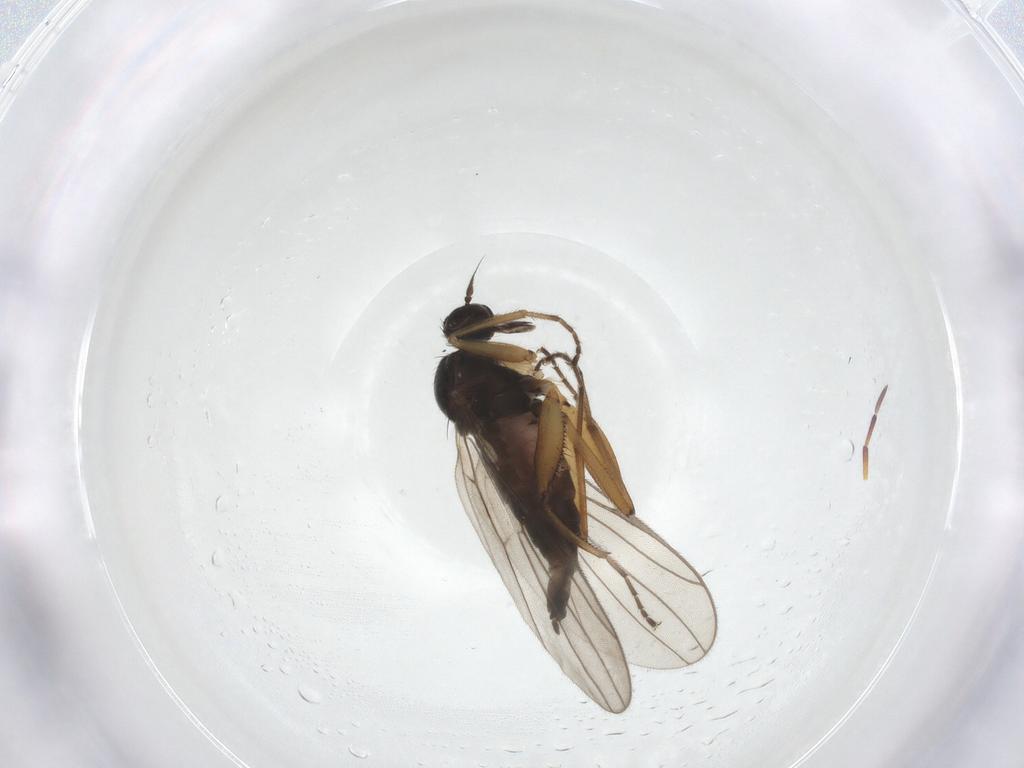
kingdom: Animalia
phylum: Arthropoda
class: Insecta
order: Diptera
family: Hybotidae
